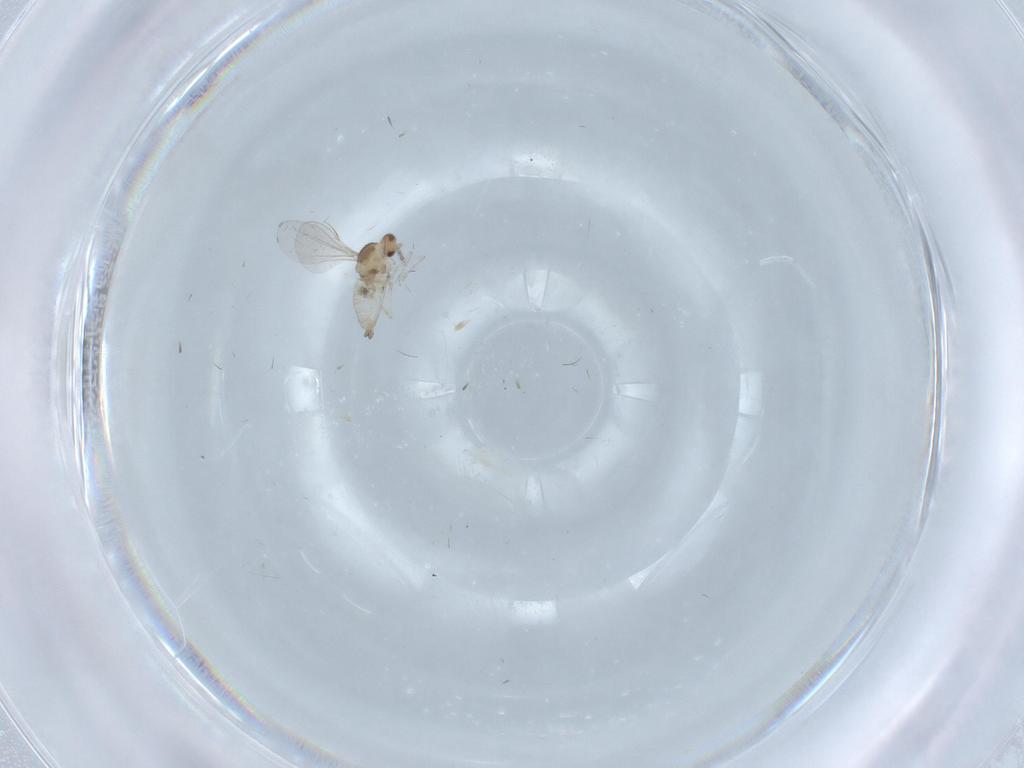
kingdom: Animalia
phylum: Arthropoda
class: Insecta
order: Diptera
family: Cecidomyiidae
